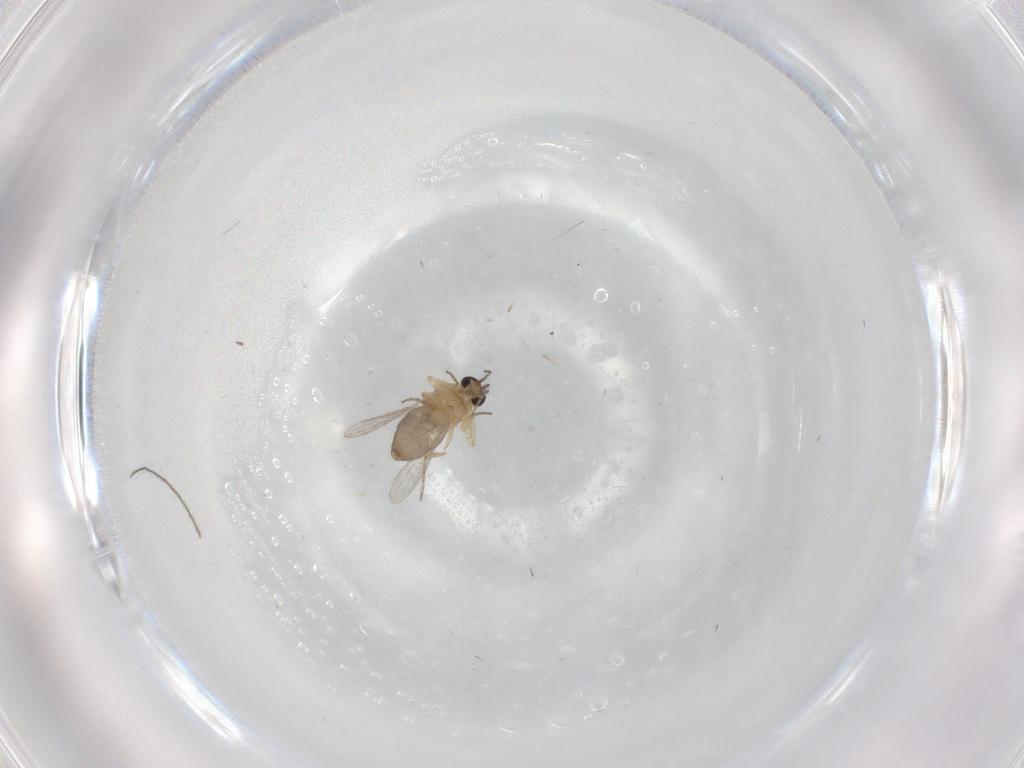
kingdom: Animalia
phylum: Arthropoda
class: Insecta
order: Diptera
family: Ceratopogonidae
